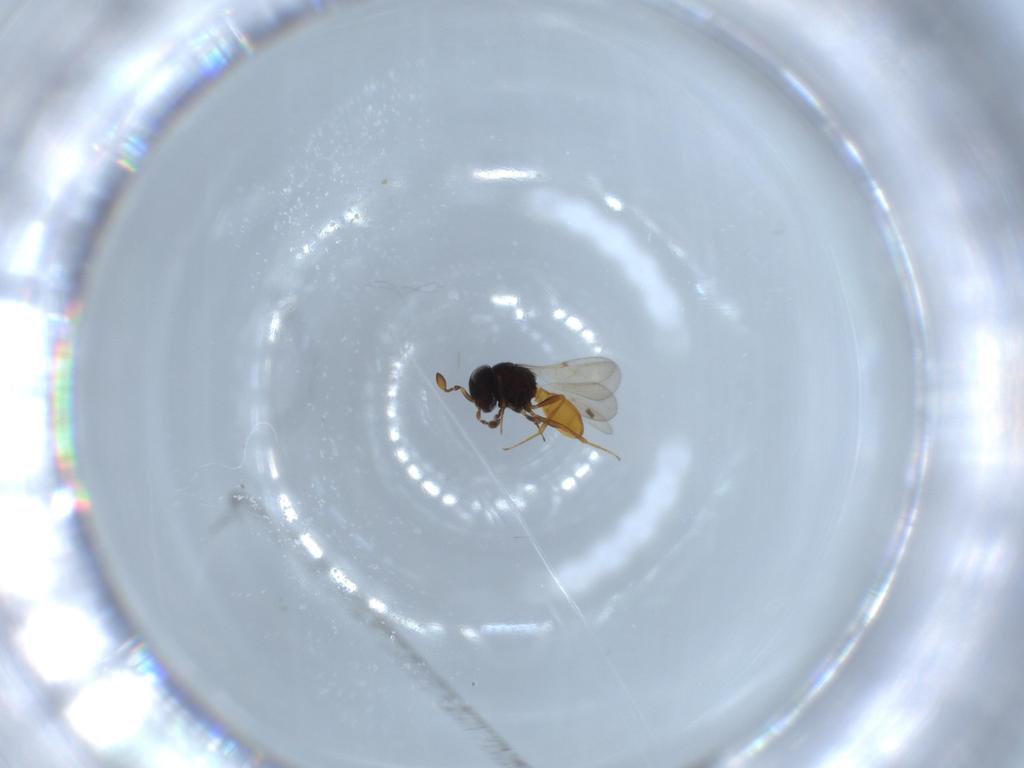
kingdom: Animalia
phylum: Arthropoda
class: Insecta
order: Hymenoptera
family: Scelionidae
